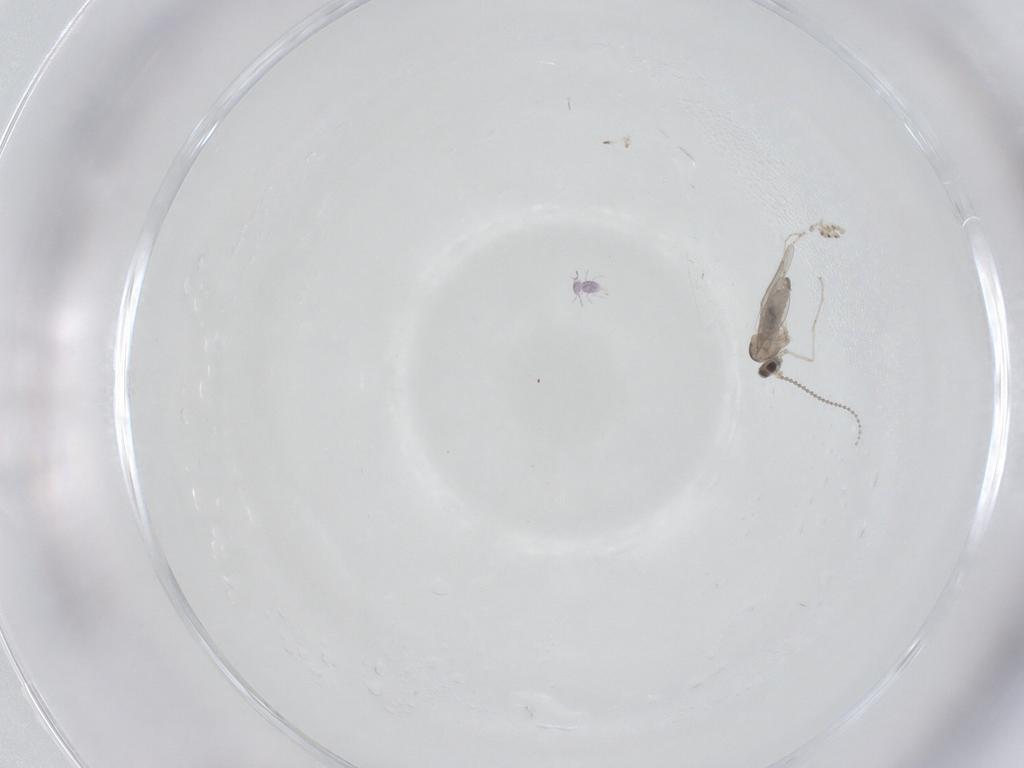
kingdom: Animalia
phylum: Arthropoda
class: Insecta
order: Diptera
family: Cecidomyiidae
